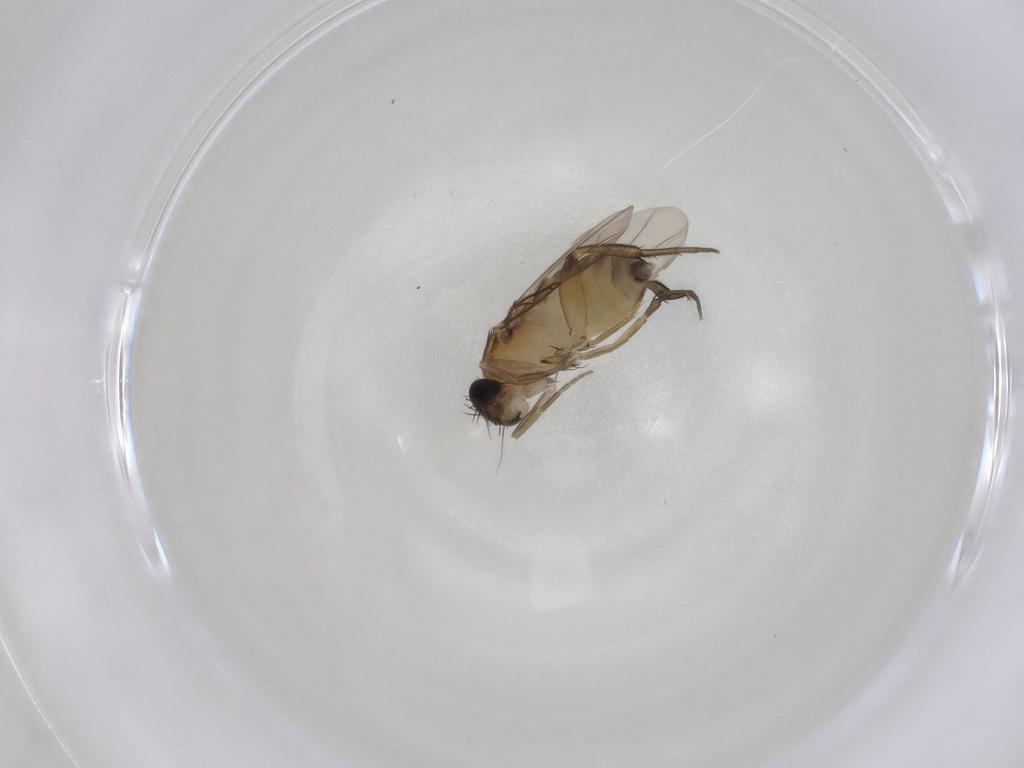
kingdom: Animalia
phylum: Arthropoda
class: Insecta
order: Diptera
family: Phoridae
